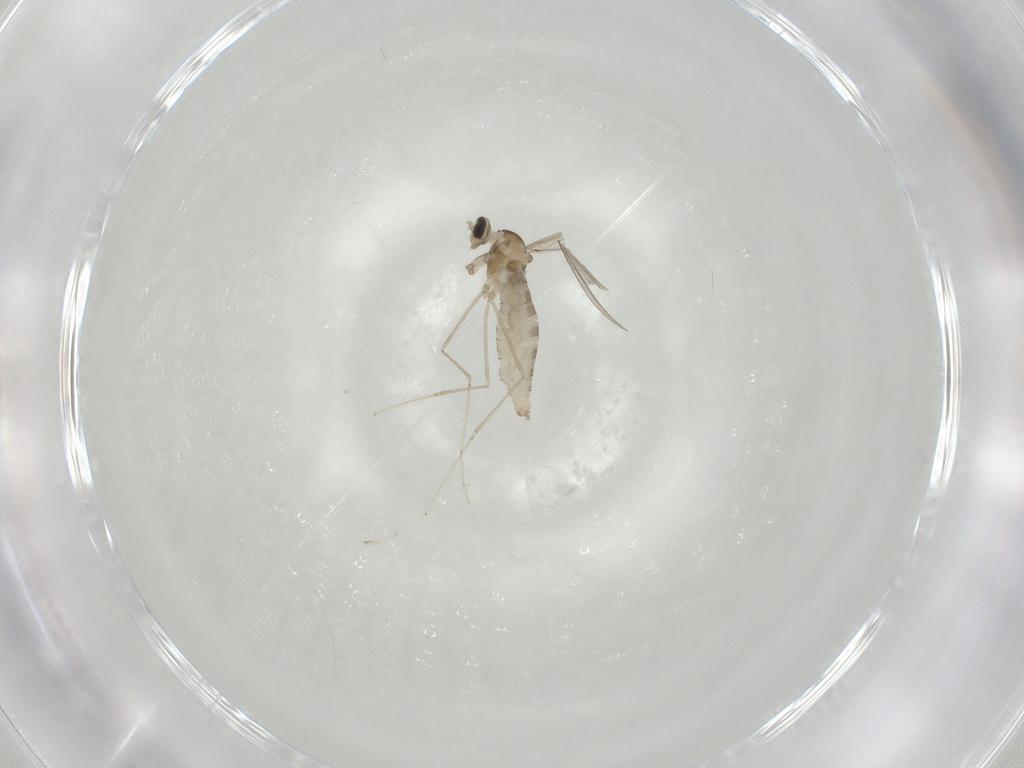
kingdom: Animalia
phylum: Arthropoda
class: Insecta
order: Diptera
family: Cecidomyiidae
